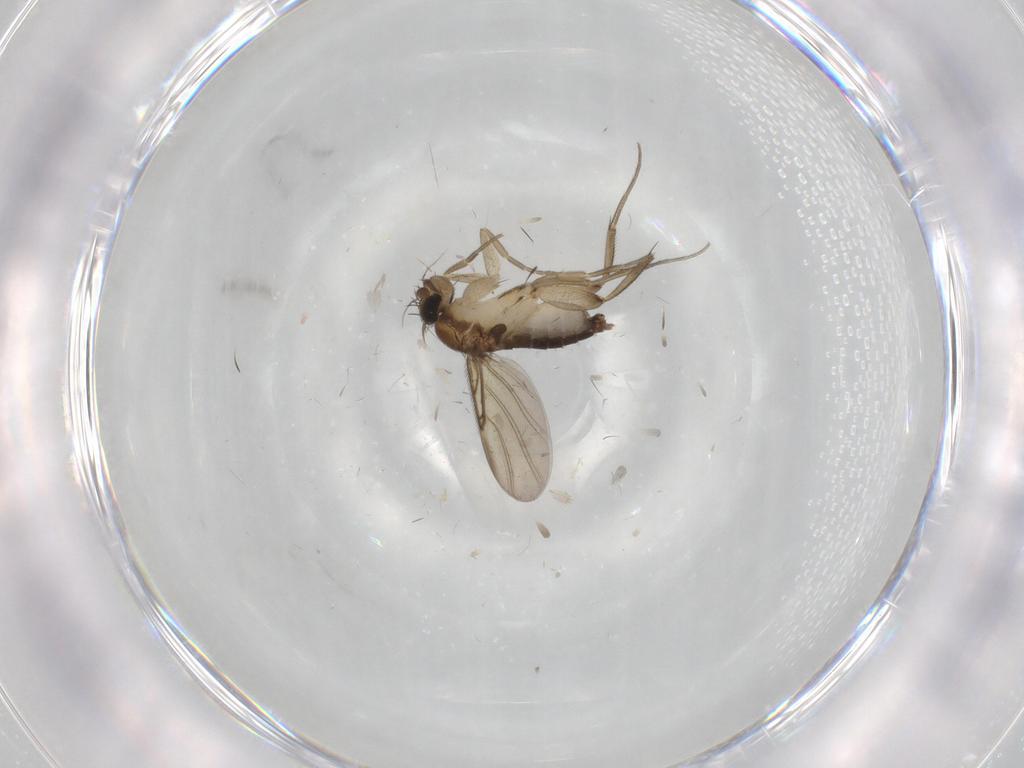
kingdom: Animalia
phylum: Arthropoda
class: Insecta
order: Diptera
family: Phoridae
